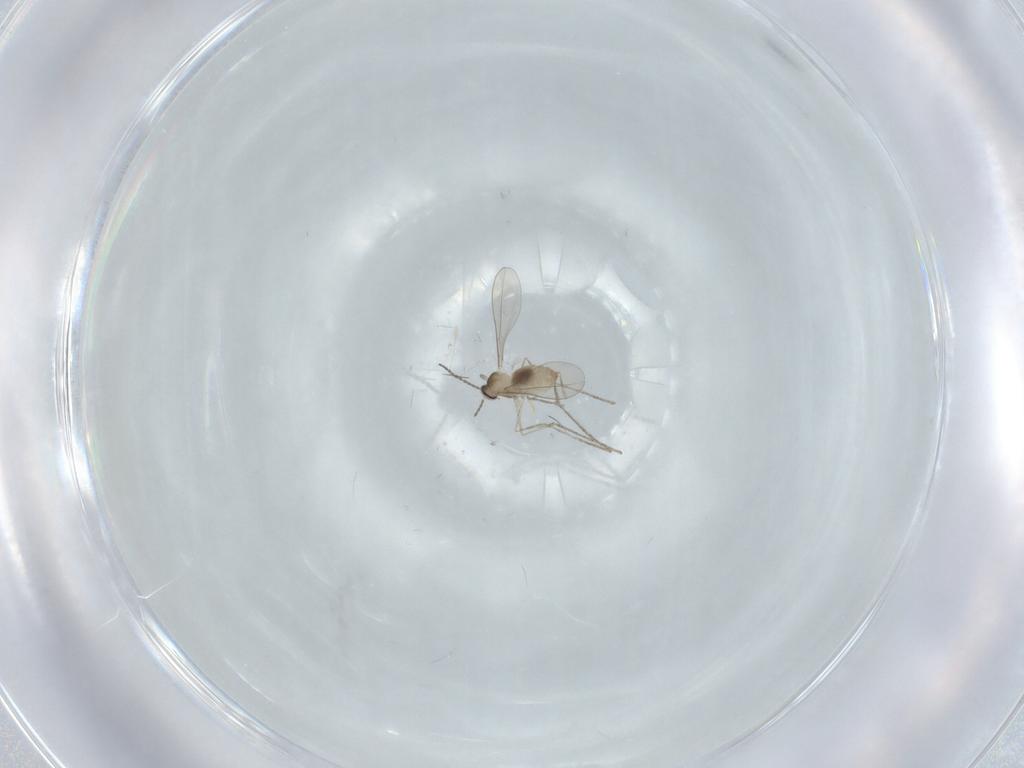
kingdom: Animalia
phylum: Arthropoda
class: Insecta
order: Diptera
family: Cecidomyiidae
